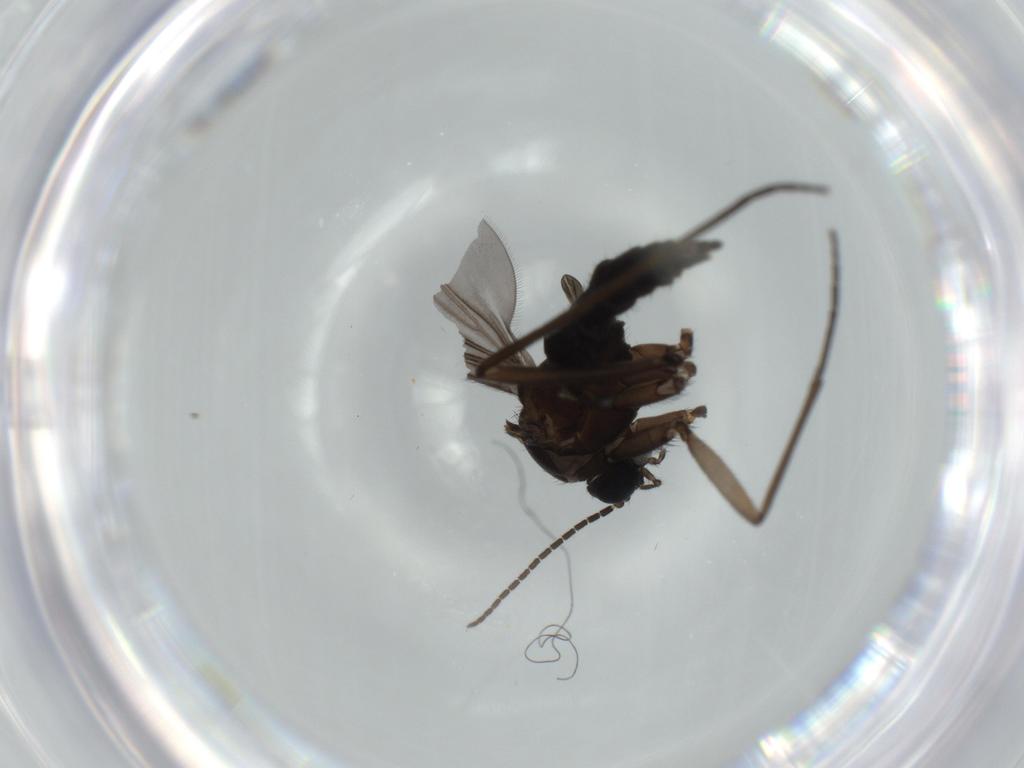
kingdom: Animalia
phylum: Arthropoda
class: Insecta
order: Diptera
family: Sciaridae
